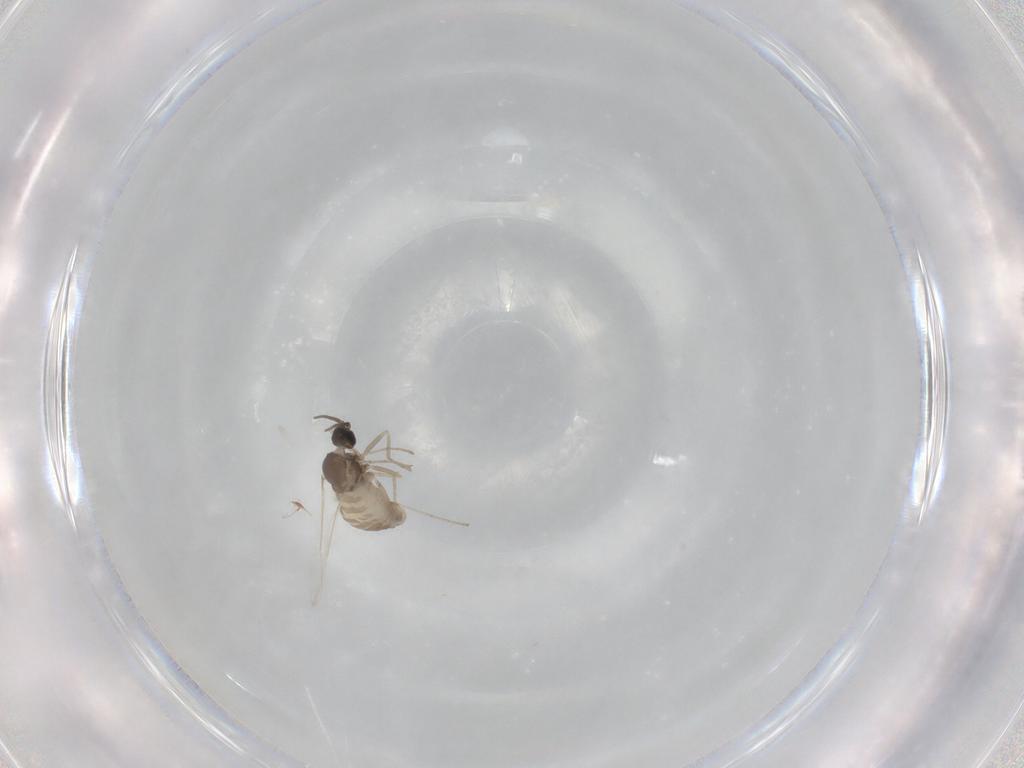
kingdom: Animalia
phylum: Arthropoda
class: Insecta
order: Diptera
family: Cecidomyiidae
